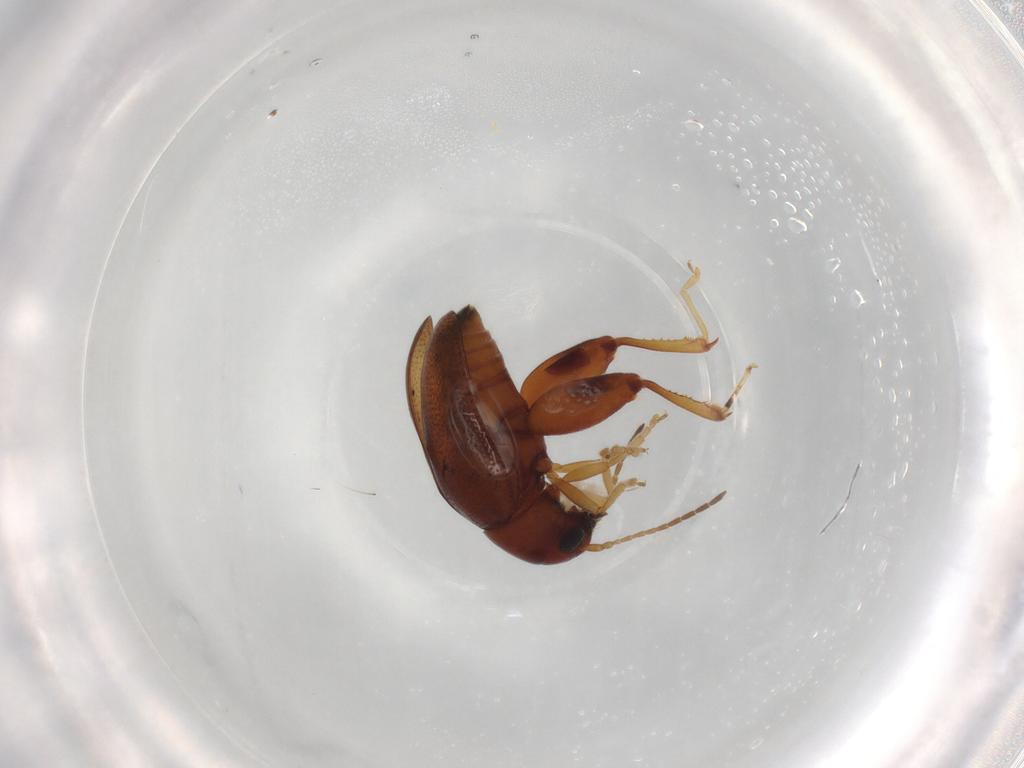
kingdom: Animalia
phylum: Arthropoda
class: Insecta
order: Coleoptera
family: Chrysomelidae
